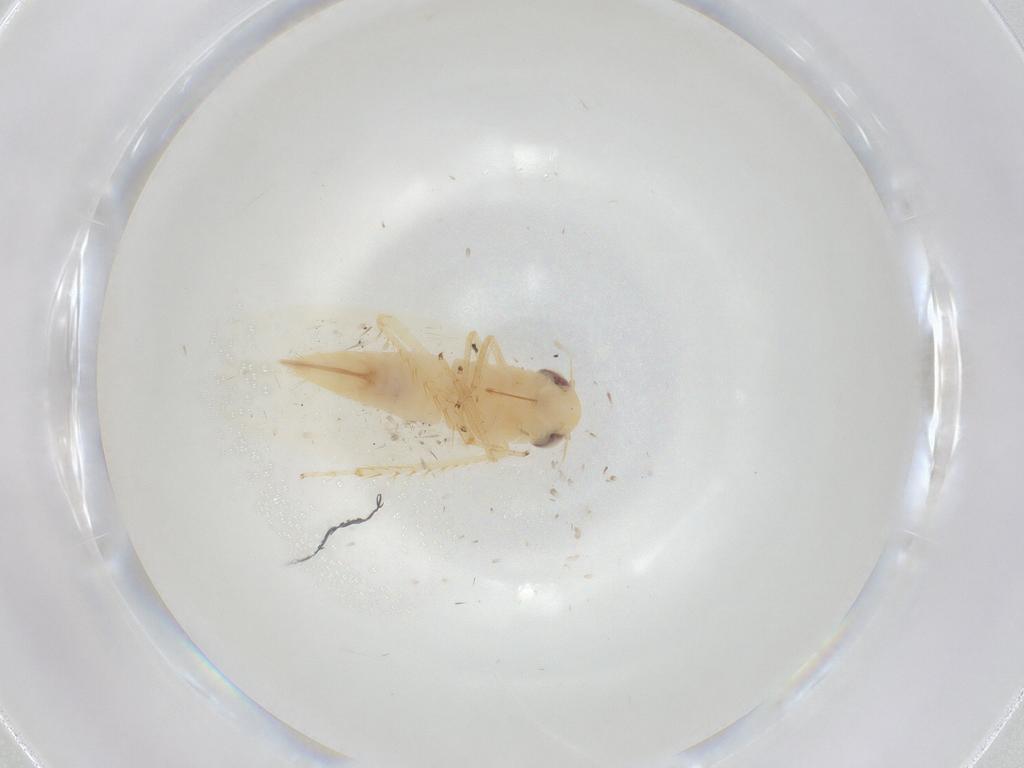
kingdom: Animalia
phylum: Arthropoda
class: Insecta
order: Hemiptera
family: Cicadellidae
